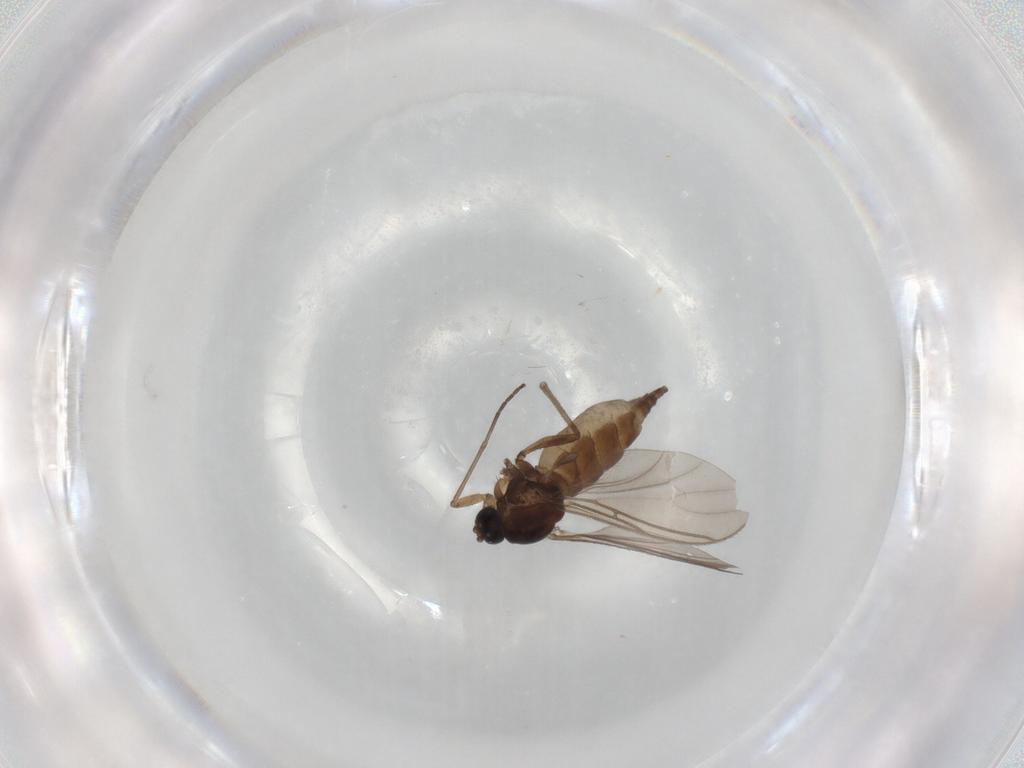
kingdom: Animalia
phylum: Arthropoda
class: Insecta
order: Diptera
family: Sciaridae
